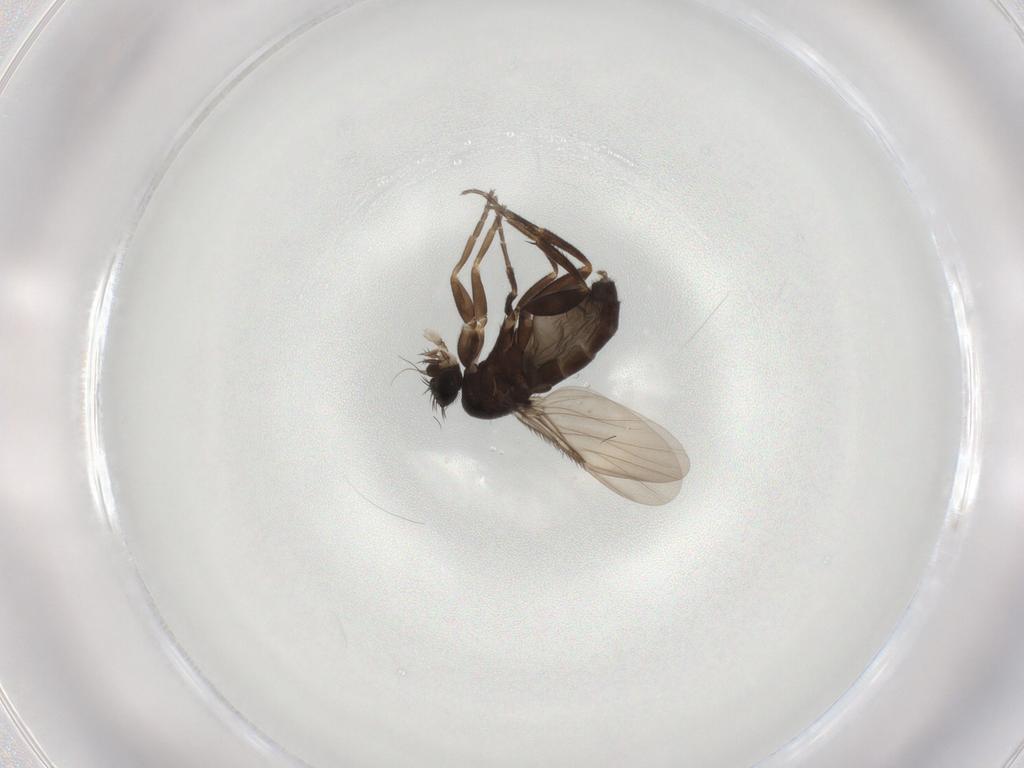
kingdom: Animalia
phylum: Arthropoda
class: Insecta
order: Diptera
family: Phoridae
